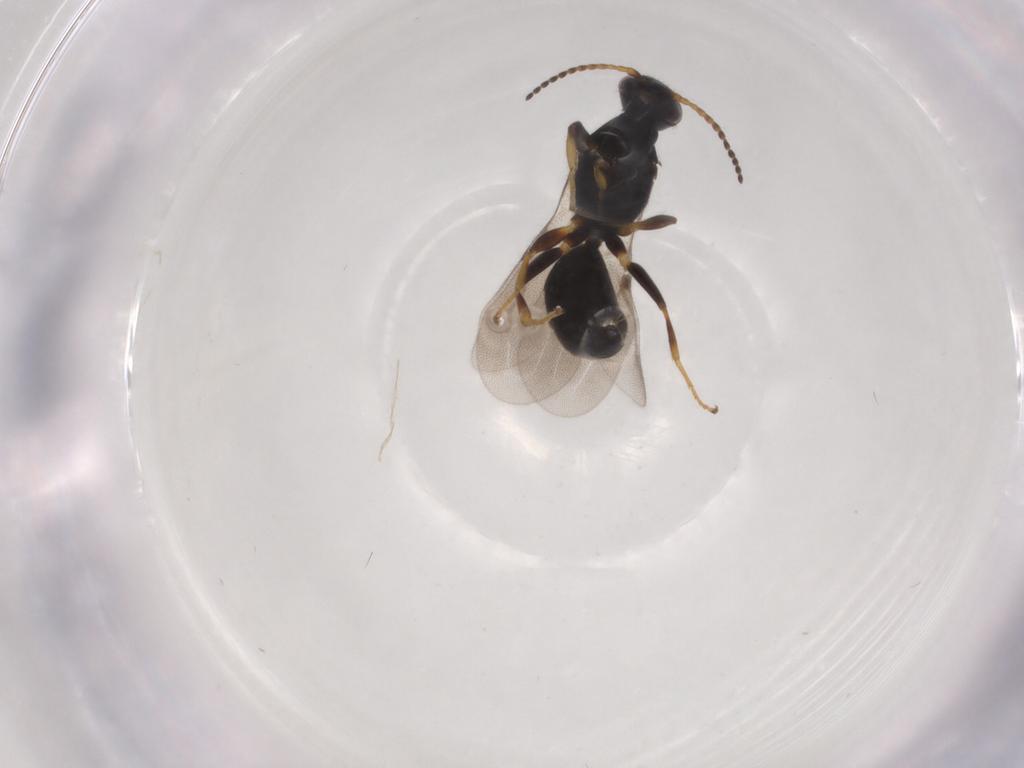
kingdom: Animalia
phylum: Arthropoda
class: Insecta
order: Hymenoptera
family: Bethylidae
